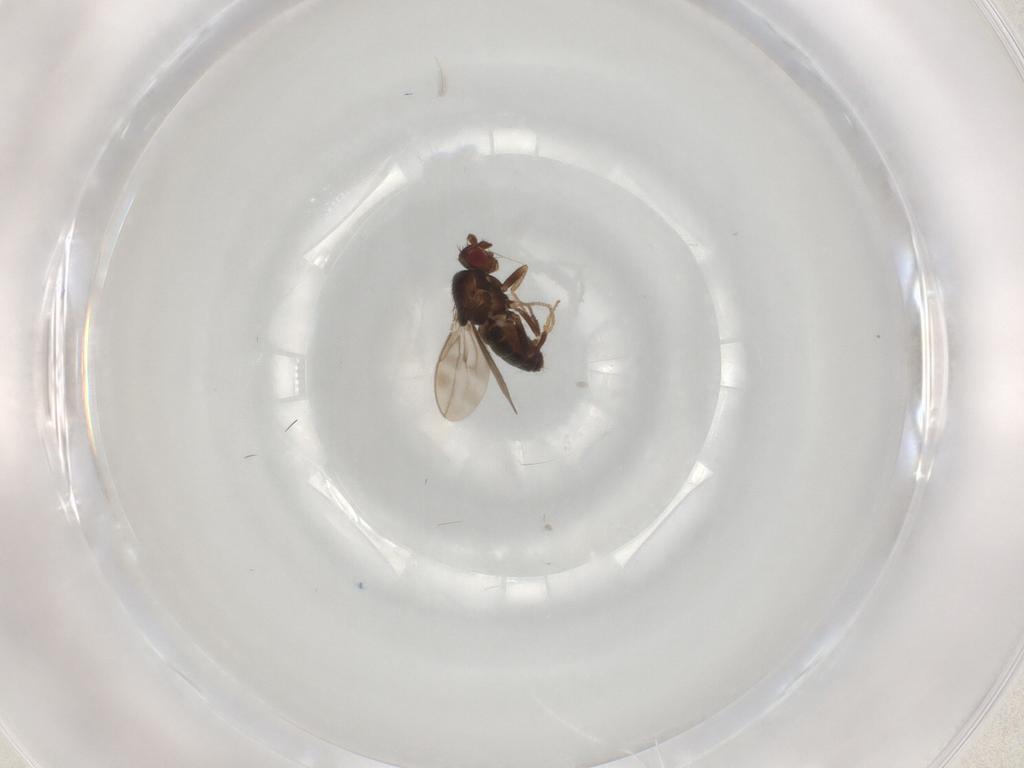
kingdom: Animalia
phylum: Arthropoda
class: Insecta
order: Diptera
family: Sphaeroceridae
